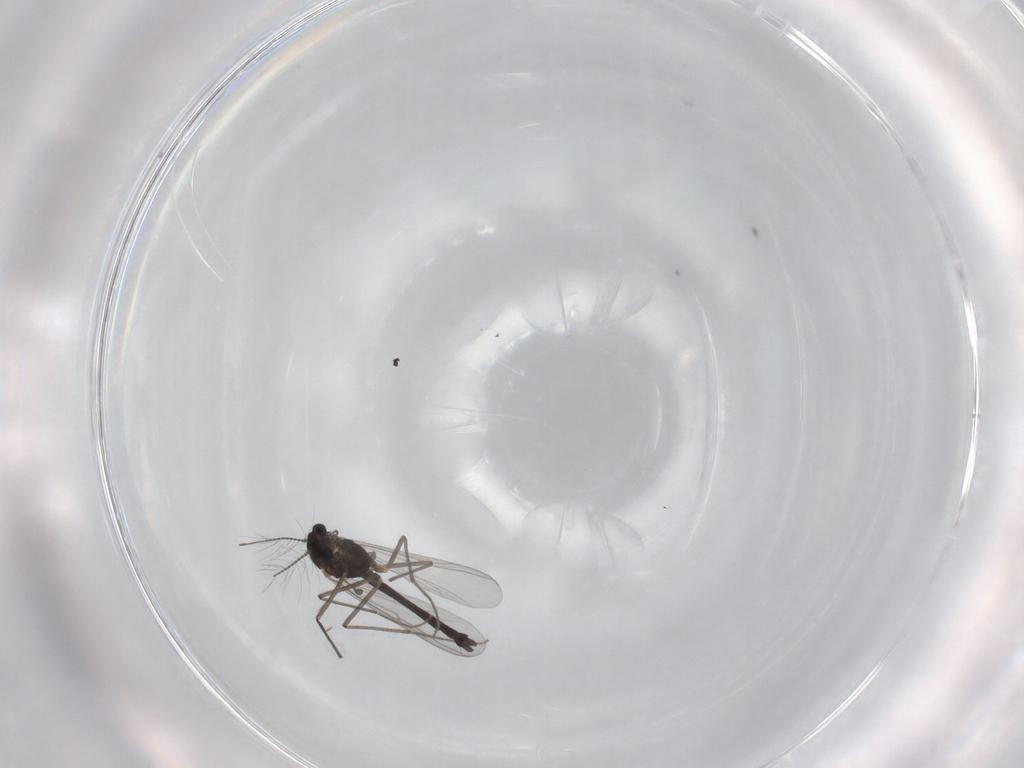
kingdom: Animalia
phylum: Arthropoda
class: Insecta
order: Diptera
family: Chironomidae
